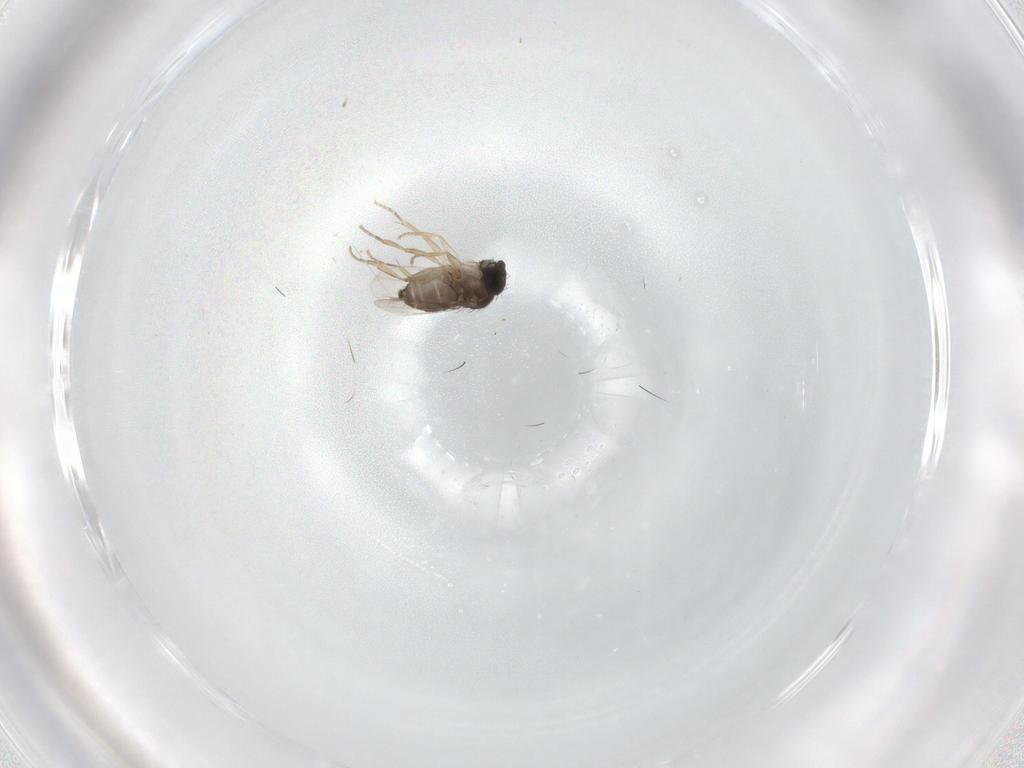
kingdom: Animalia
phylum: Arthropoda
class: Insecta
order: Diptera
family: Phoridae
